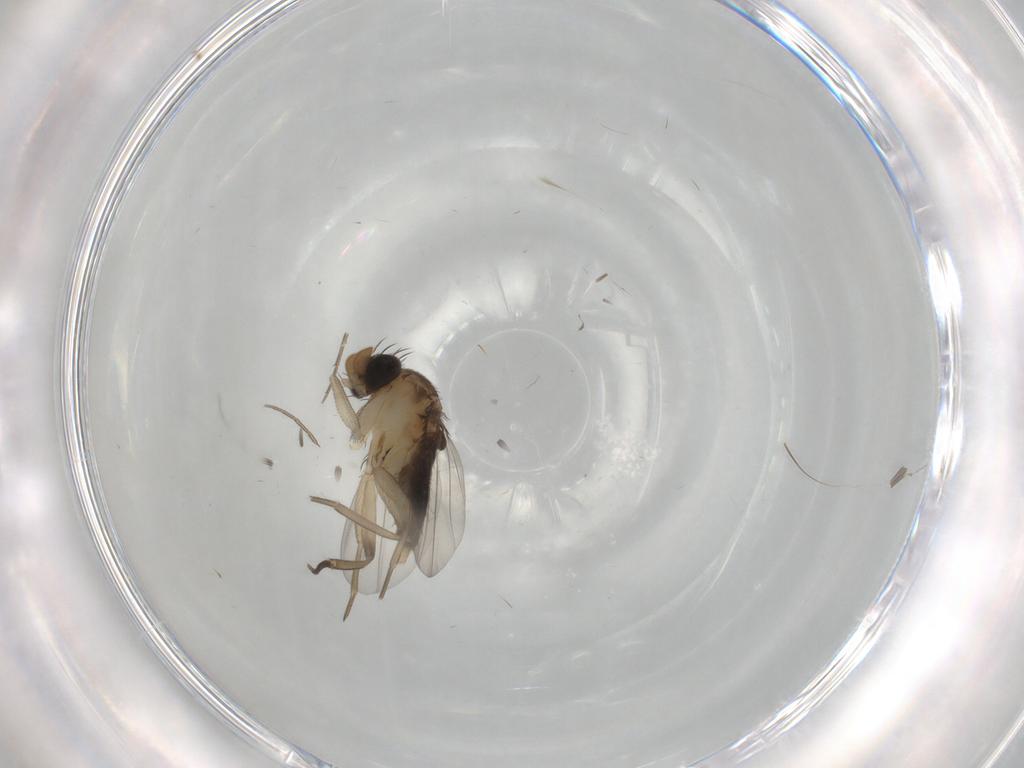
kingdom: Animalia
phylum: Arthropoda
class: Insecta
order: Diptera
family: Phoridae
